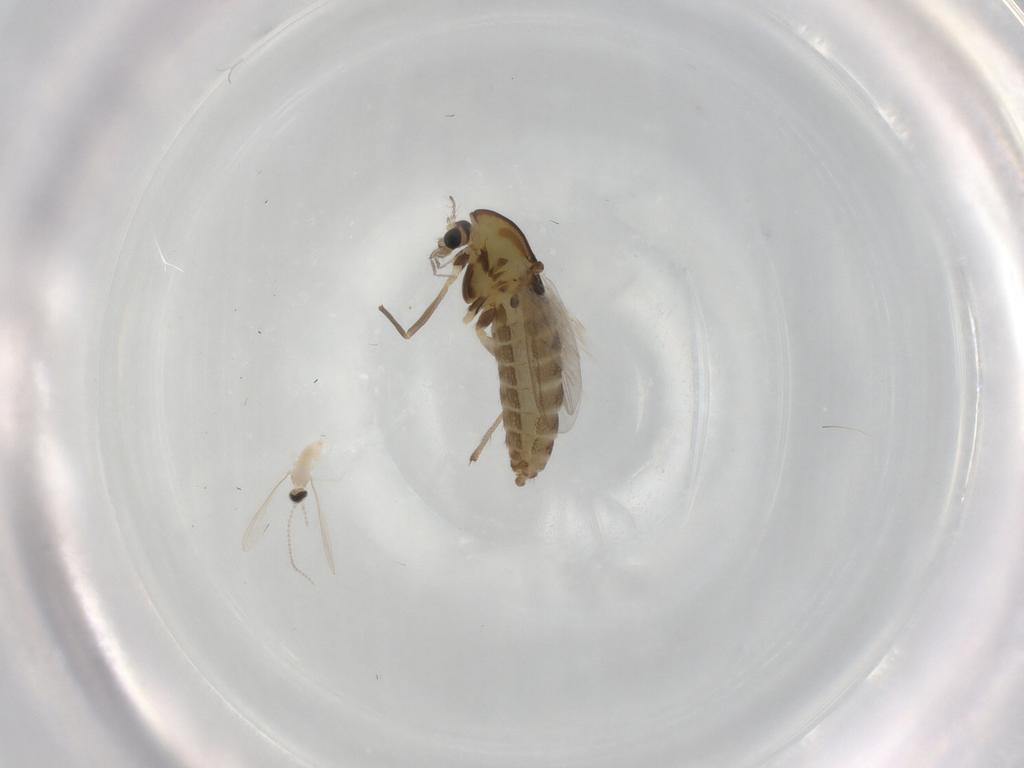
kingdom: Animalia
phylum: Arthropoda
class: Insecta
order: Diptera
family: Chironomidae
